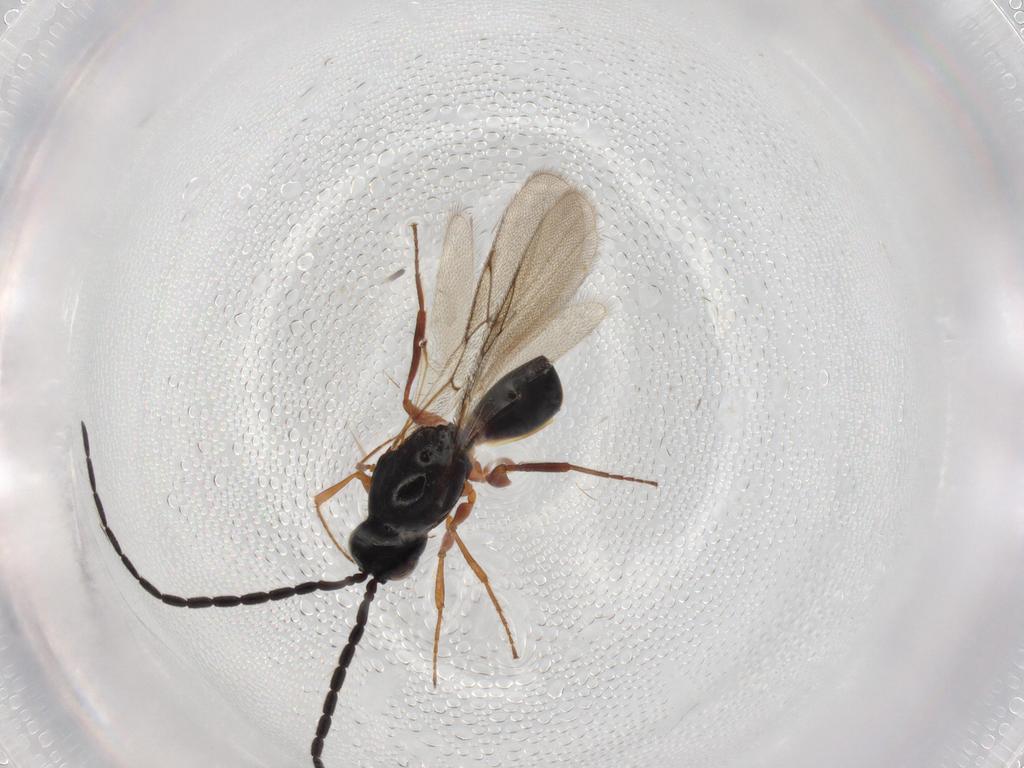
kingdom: Animalia
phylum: Arthropoda
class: Insecta
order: Hymenoptera
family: Figitidae
